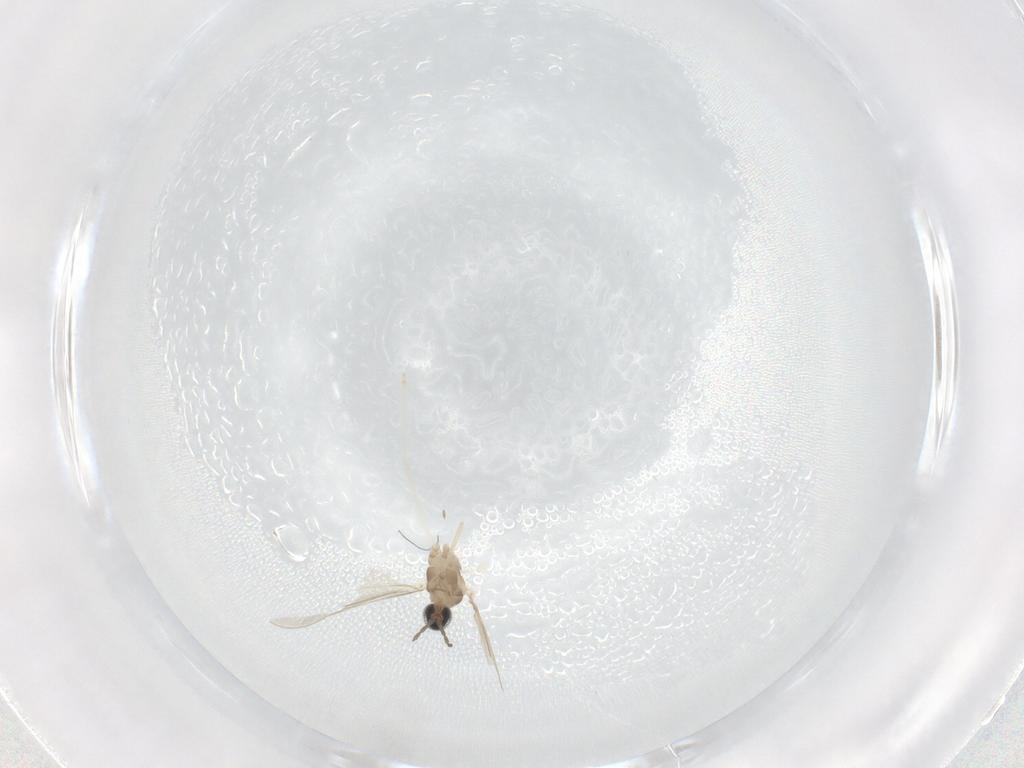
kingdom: Animalia
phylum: Arthropoda
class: Insecta
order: Diptera
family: Cecidomyiidae
